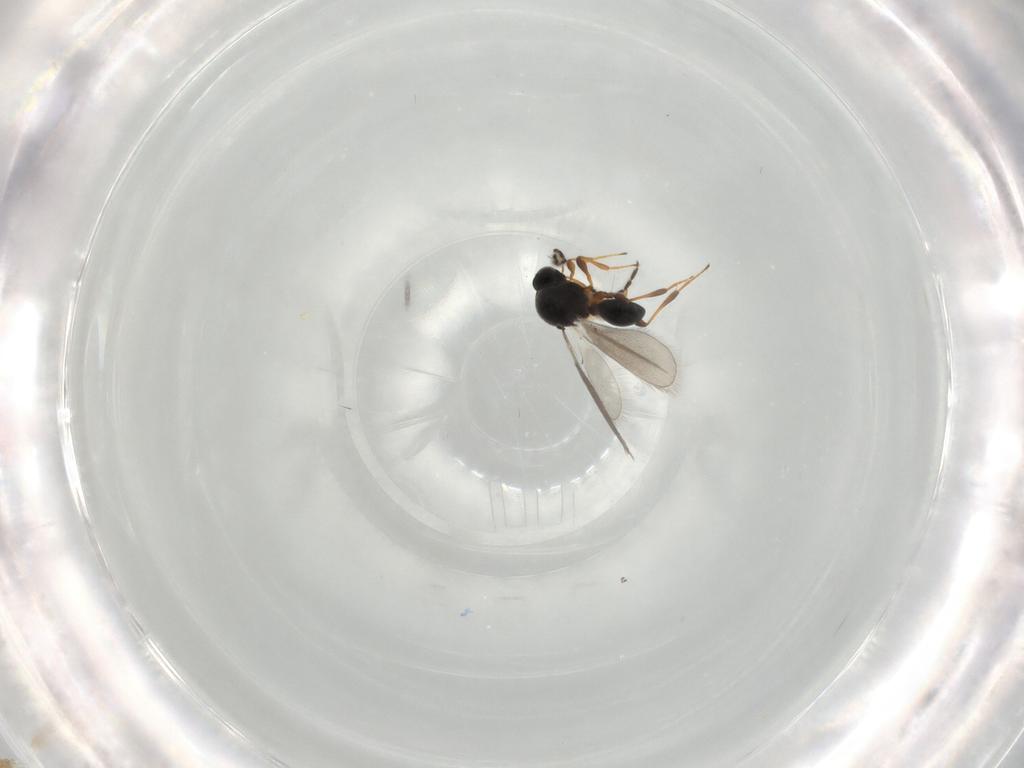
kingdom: Animalia
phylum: Arthropoda
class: Insecta
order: Hymenoptera
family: Platygastridae
